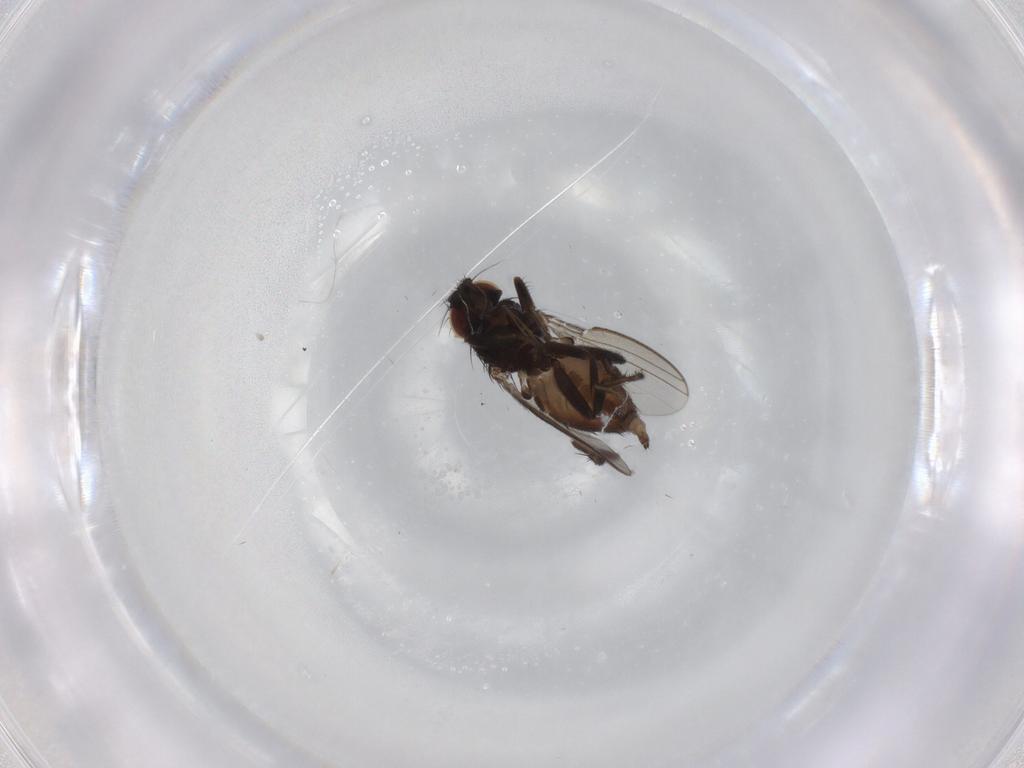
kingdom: Animalia
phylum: Arthropoda
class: Insecta
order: Diptera
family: Milichiidae
